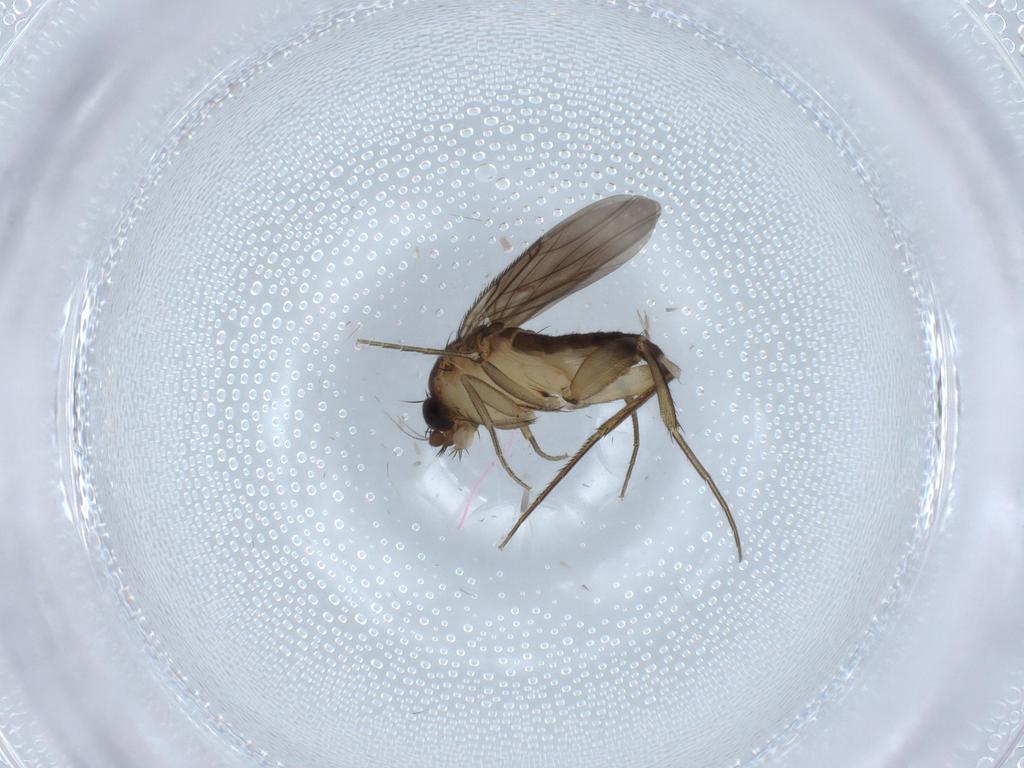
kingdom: Animalia
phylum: Arthropoda
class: Insecta
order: Diptera
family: Phoridae
